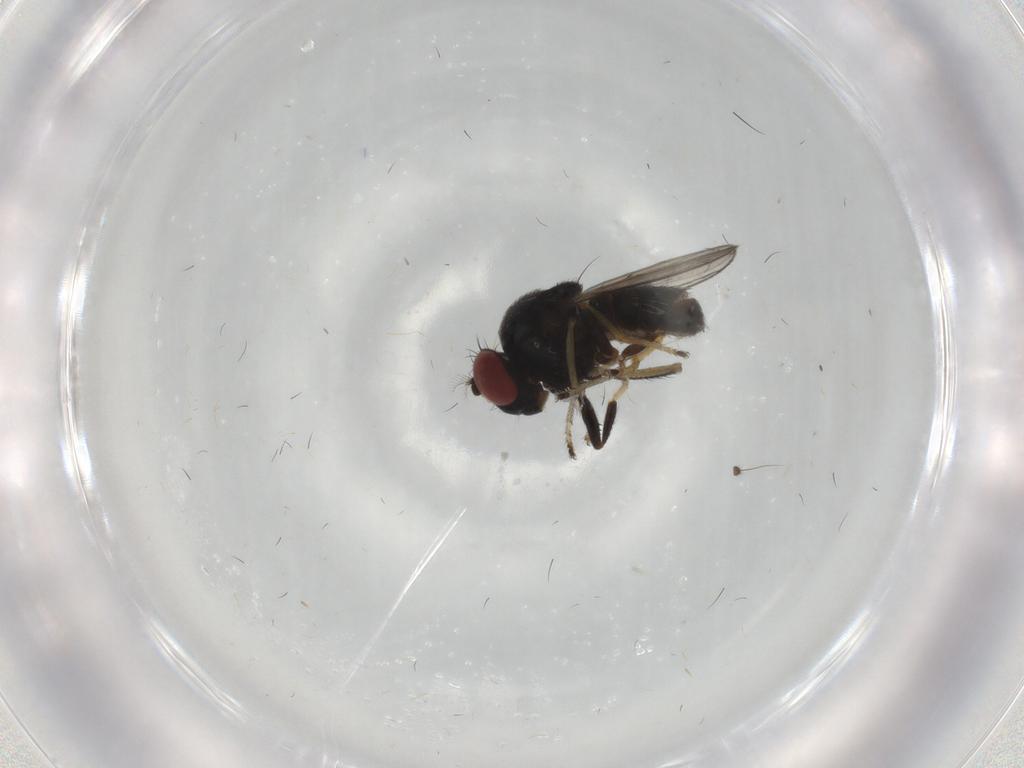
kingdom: Animalia
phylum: Arthropoda
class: Insecta
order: Diptera
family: Ephydridae
